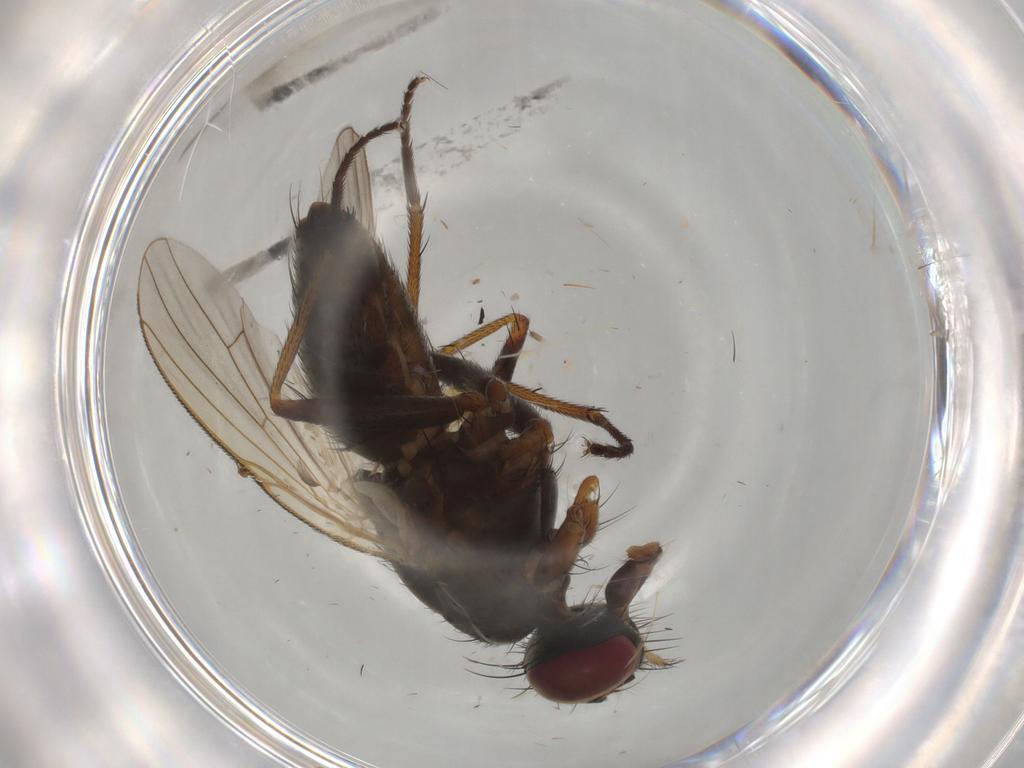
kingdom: Animalia
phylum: Arthropoda
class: Insecta
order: Diptera
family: Muscidae
